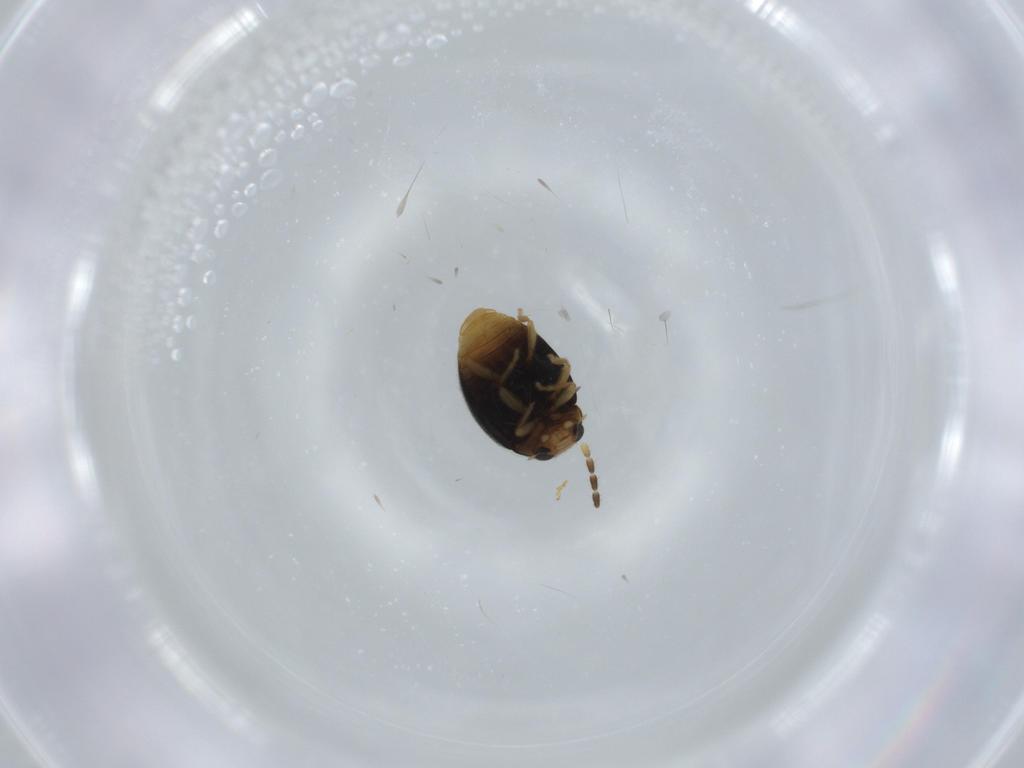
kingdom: Animalia
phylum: Arthropoda
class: Insecta
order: Coleoptera
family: Coccinellidae
